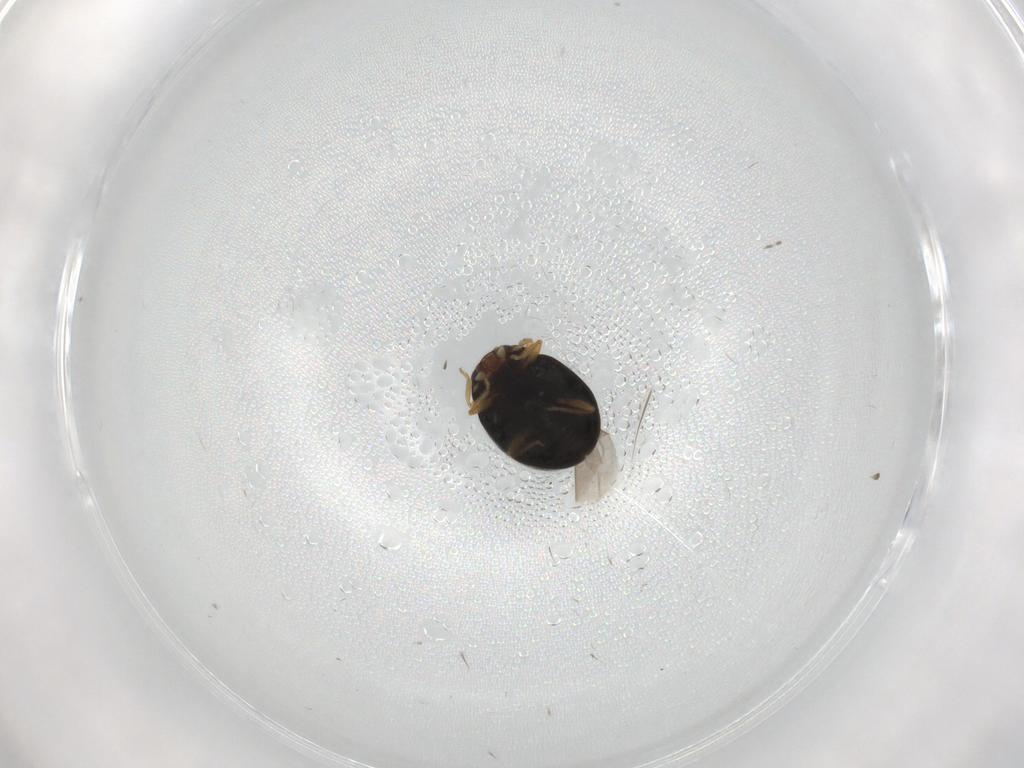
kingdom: Animalia
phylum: Arthropoda
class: Insecta
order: Coleoptera
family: Coccinellidae
